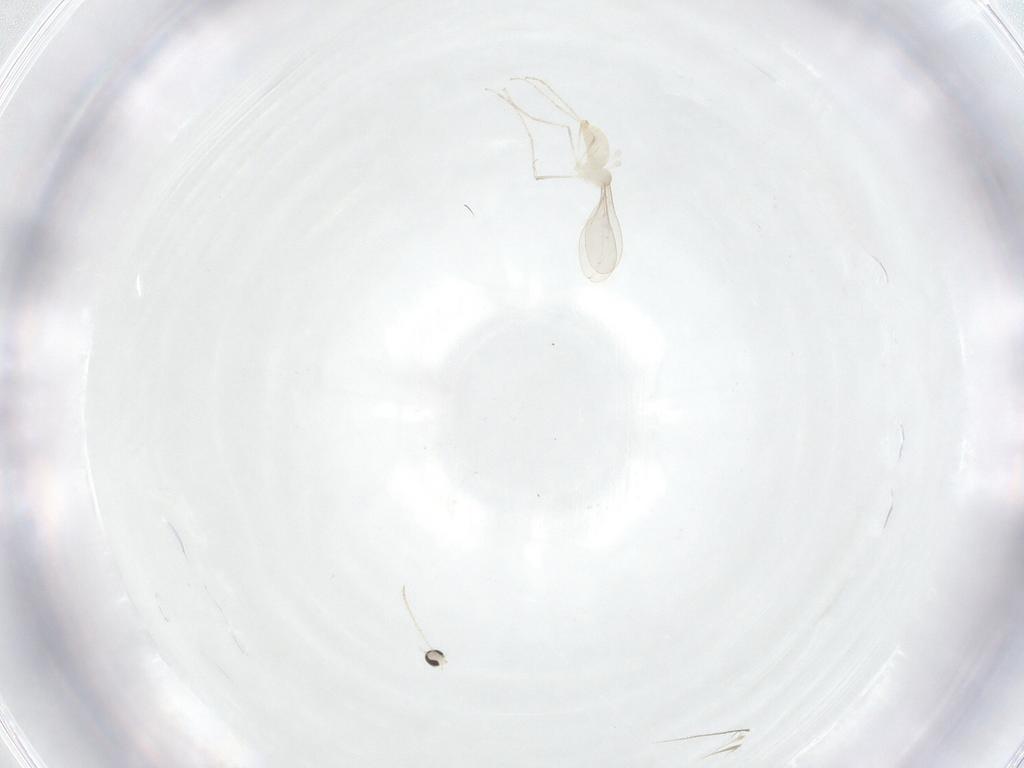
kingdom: Animalia
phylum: Arthropoda
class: Insecta
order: Diptera
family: Cecidomyiidae
